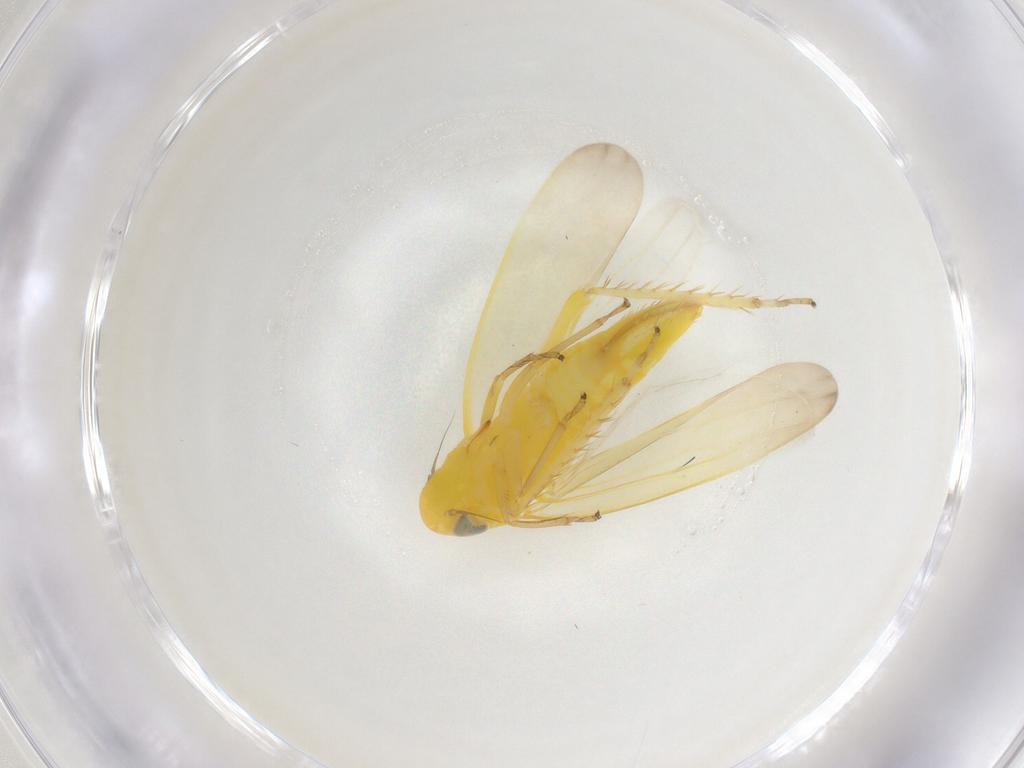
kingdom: Animalia
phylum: Arthropoda
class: Insecta
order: Hemiptera
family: Cicadellidae
